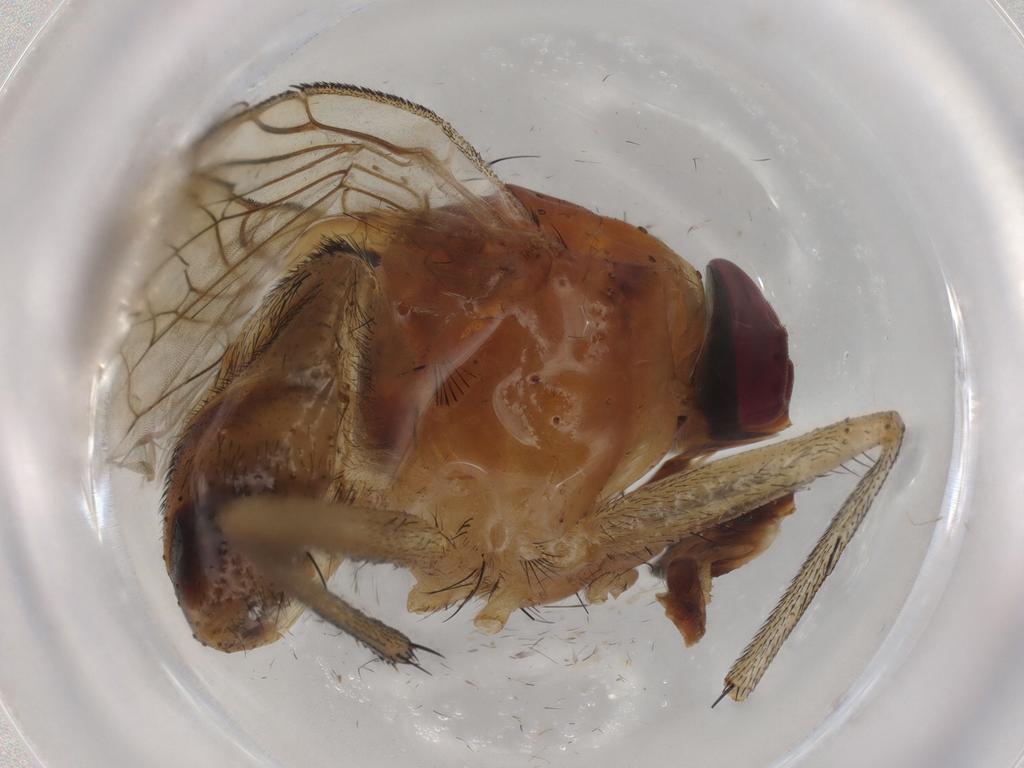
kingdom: Animalia
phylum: Arthropoda
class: Insecta
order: Diptera
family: Muscidae
